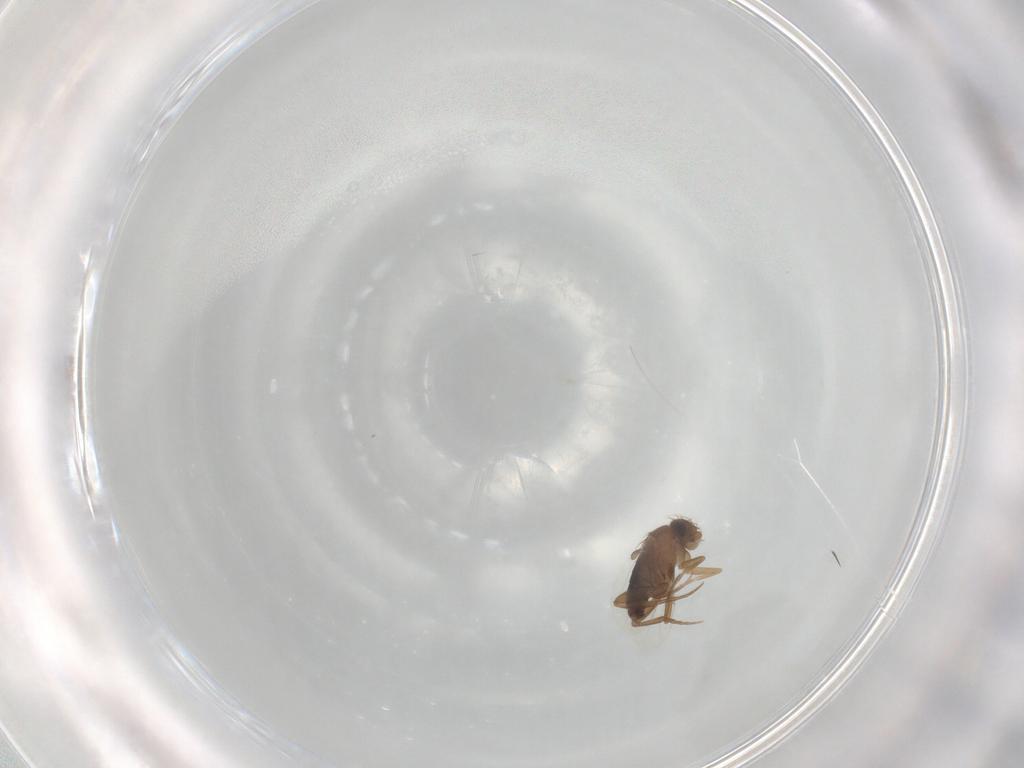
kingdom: Animalia
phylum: Arthropoda
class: Insecta
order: Diptera
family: Phoridae
